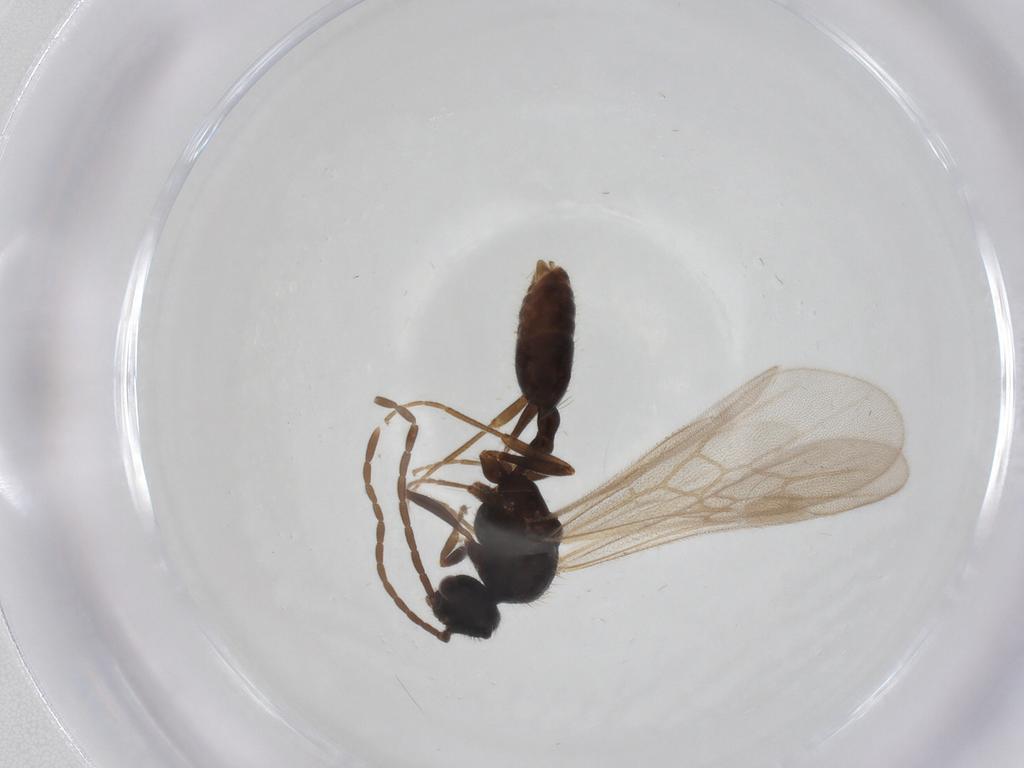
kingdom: Animalia
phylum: Arthropoda
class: Insecta
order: Hymenoptera
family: Formicidae
